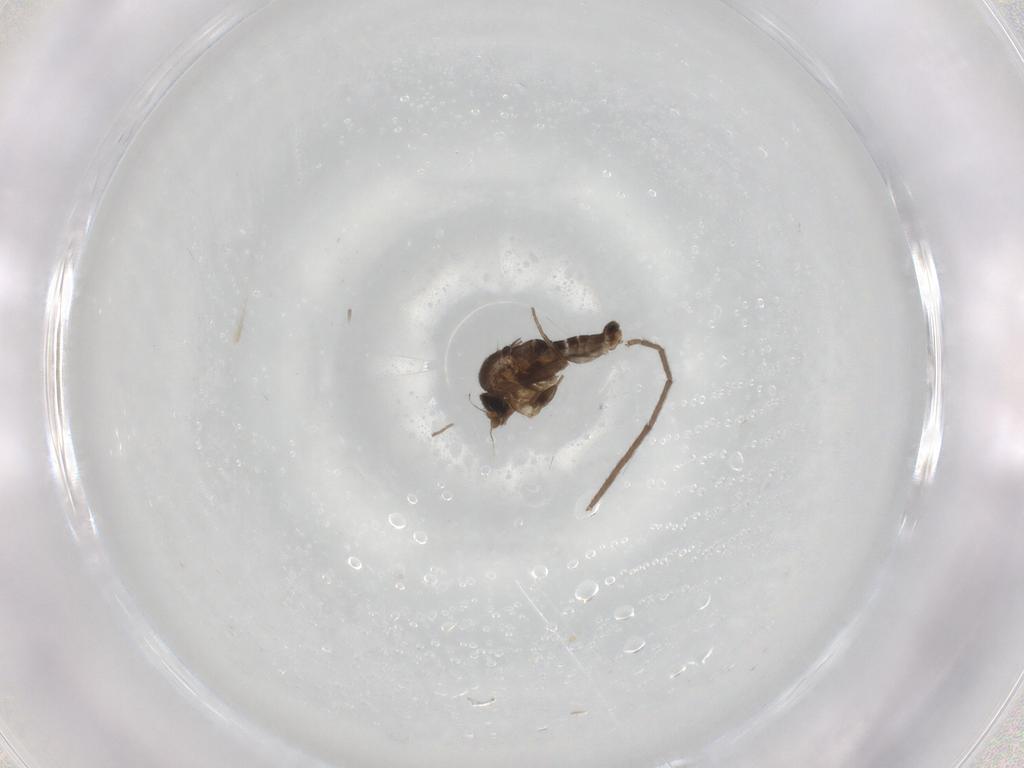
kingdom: Animalia
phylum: Arthropoda
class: Insecta
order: Diptera
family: Chironomidae
